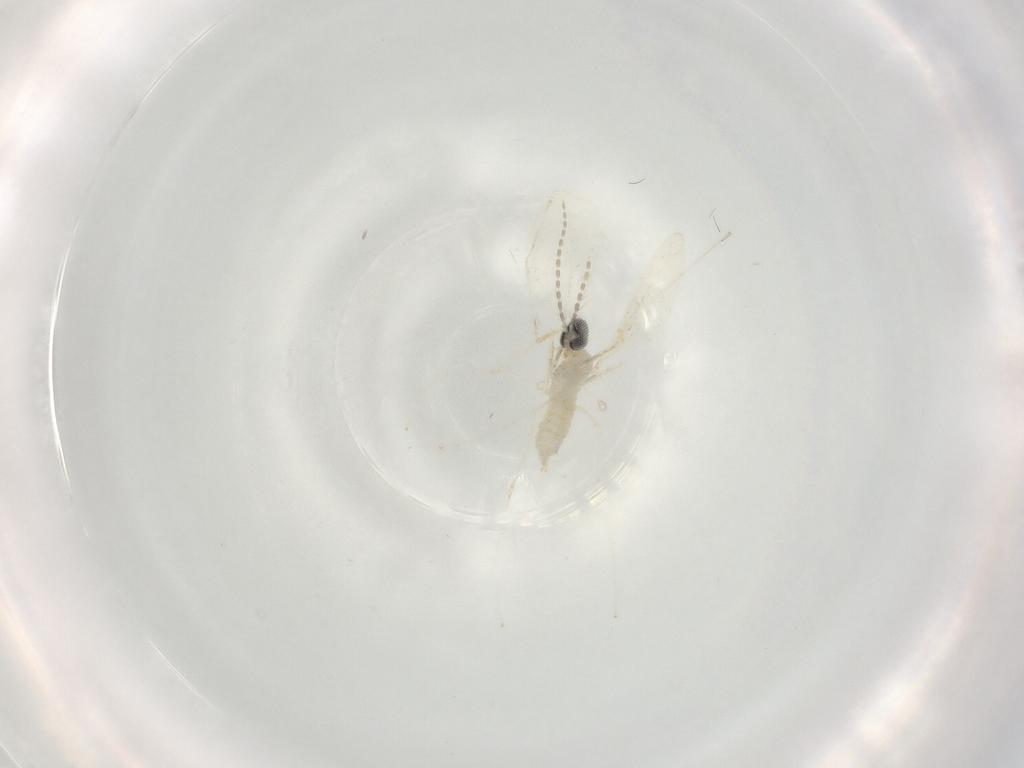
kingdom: Animalia
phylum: Arthropoda
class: Insecta
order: Diptera
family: Cecidomyiidae
